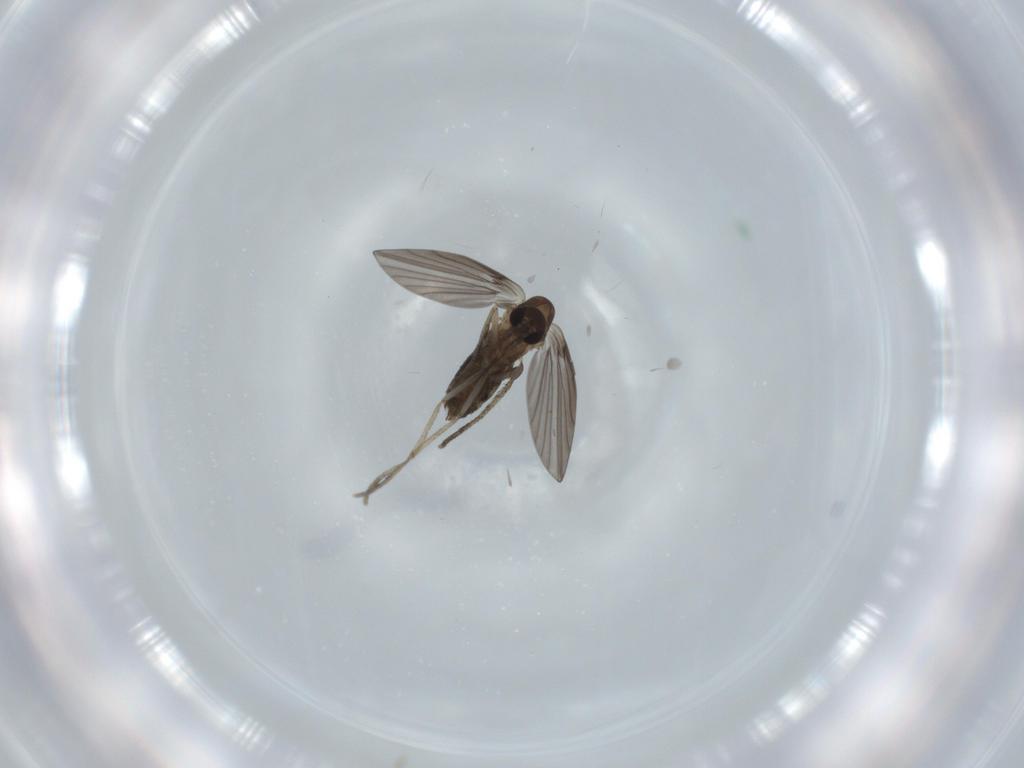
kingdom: Animalia
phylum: Arthropoda
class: Insecta
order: Diptera
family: Psychodidae
